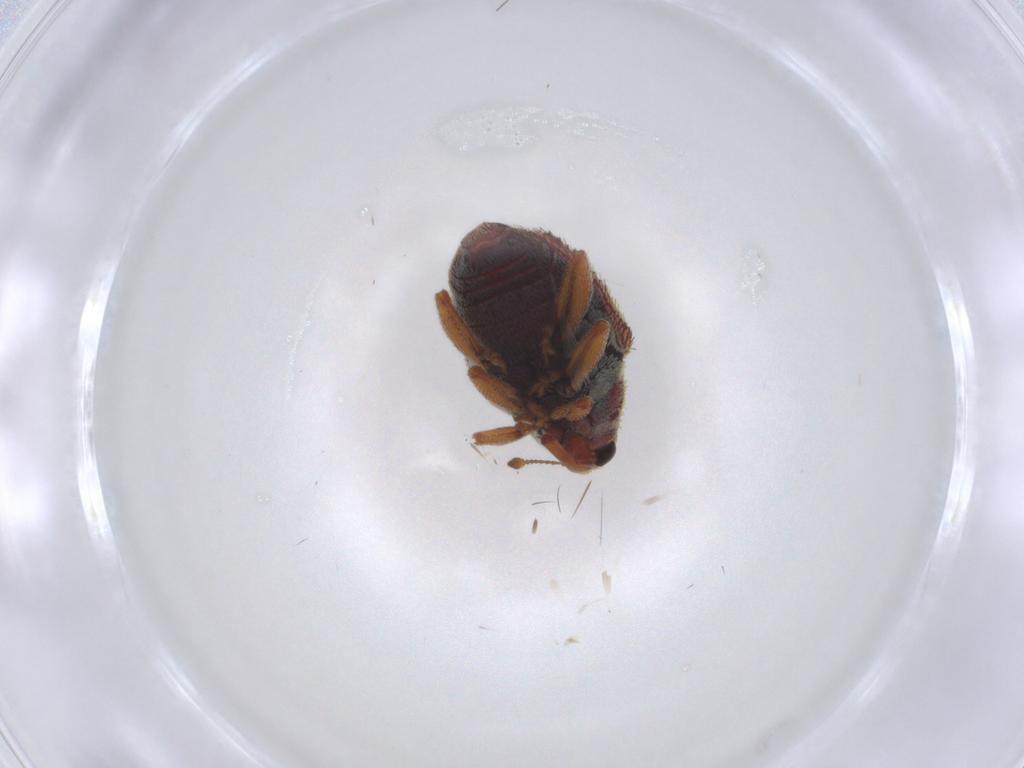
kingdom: Animalia
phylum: Arthropoda
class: Insecta
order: Coleoptera
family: Curculionidae
